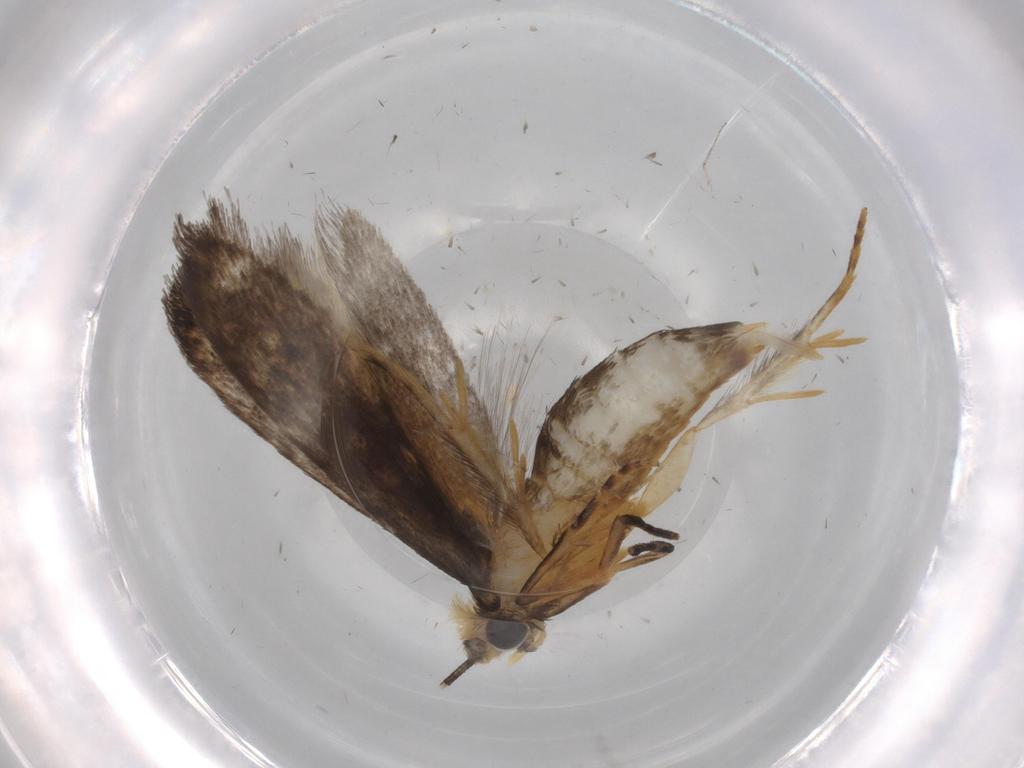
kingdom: Animalia
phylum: Arthropoda
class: Insecta
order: Lepidoptera
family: Tineidae
